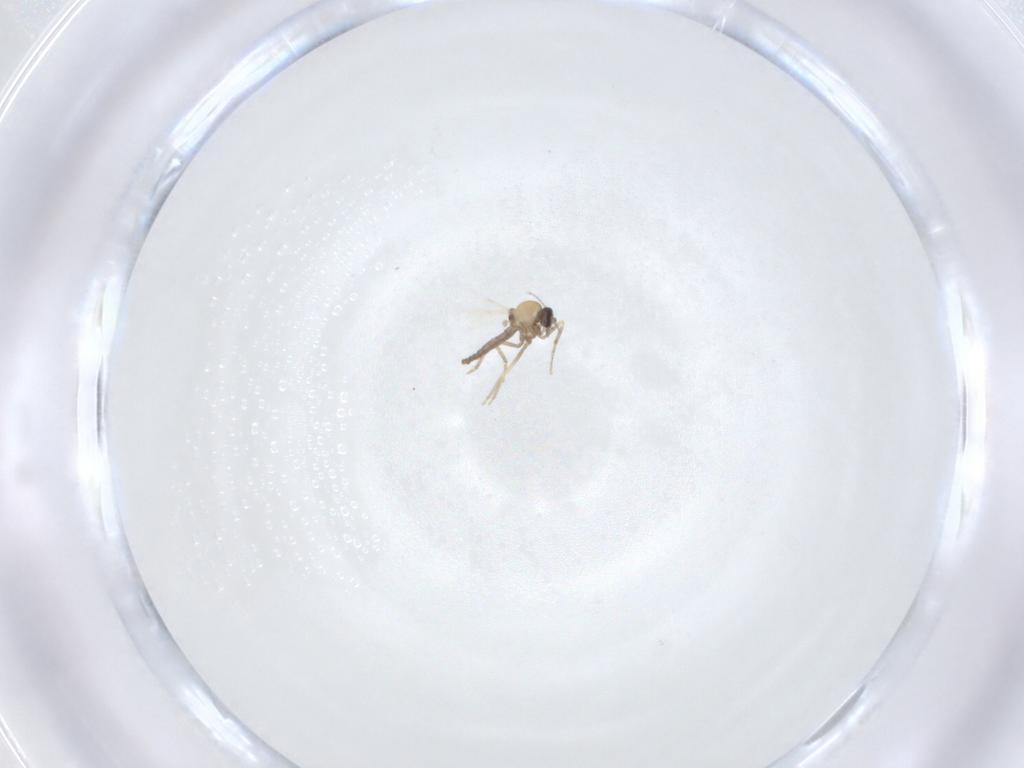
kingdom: Animalia
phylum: Arthropoda
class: Insecta
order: Diptera
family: Ceratopogonidae
